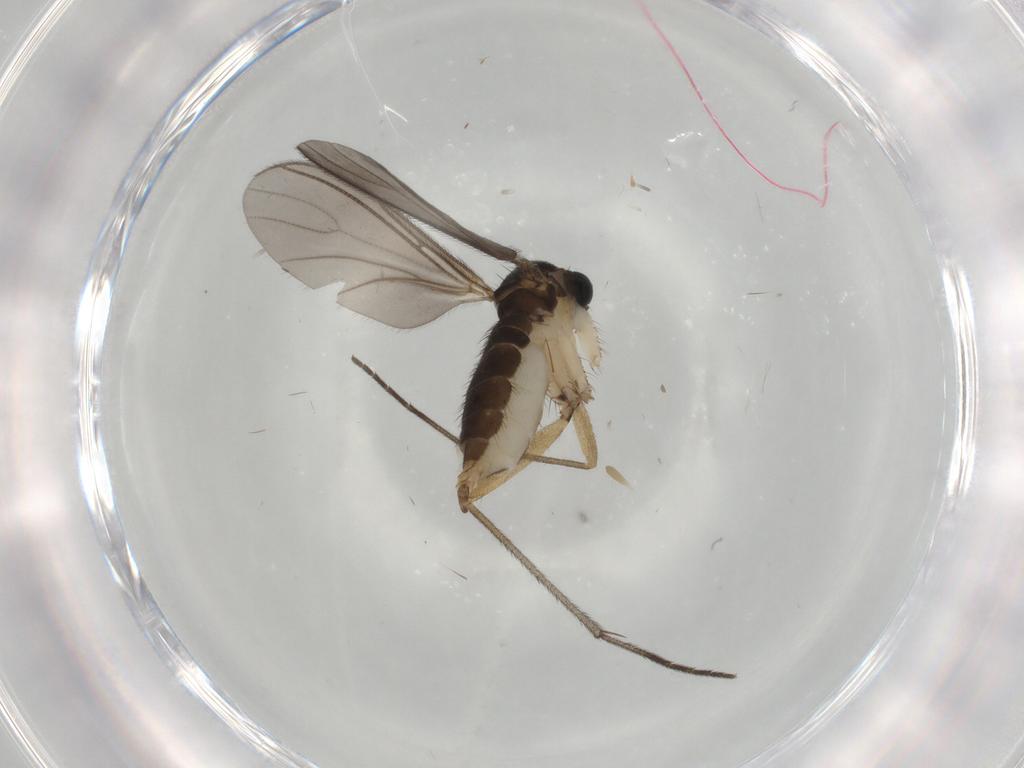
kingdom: Animalia
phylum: Arthropoda
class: Insecta
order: Diptera
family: Sciaridae
